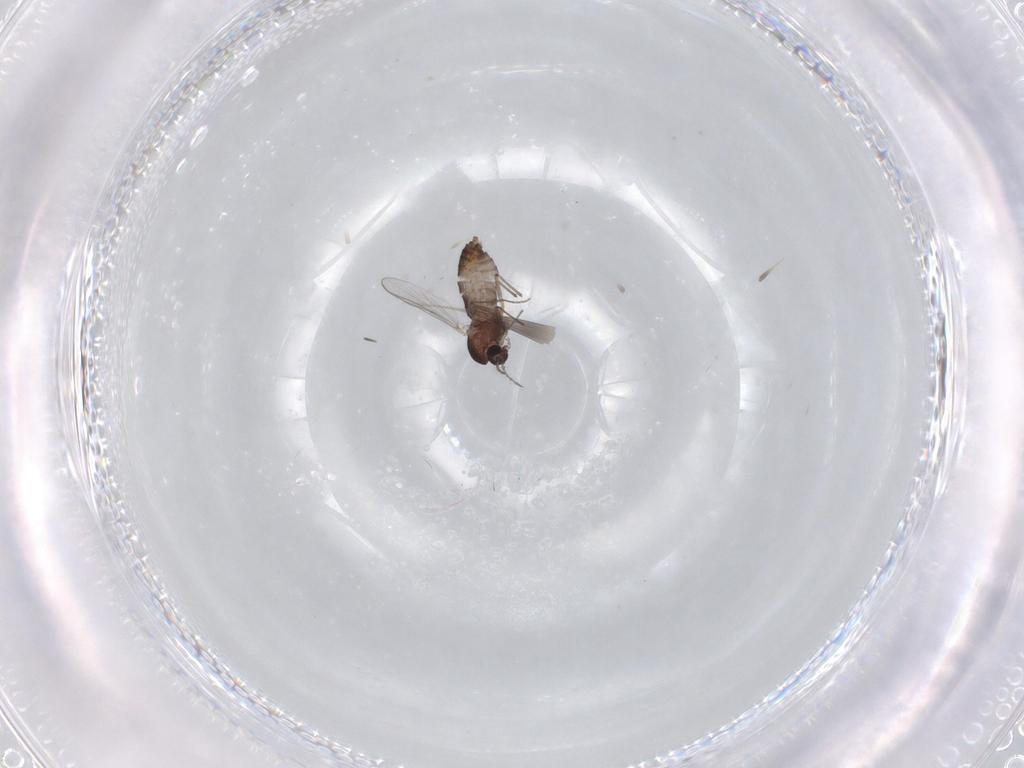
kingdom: Animalia
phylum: Arthropoda
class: Insecta
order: Diptera
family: Chironomidae
